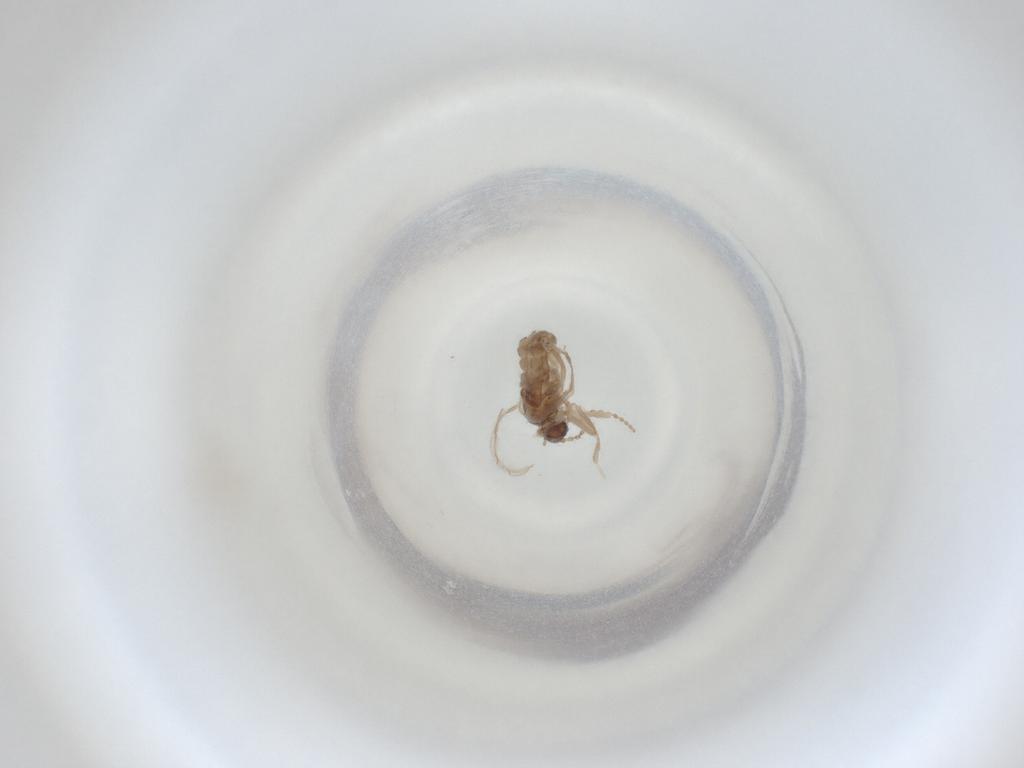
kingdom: Animalia
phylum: Arthropoda
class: Insecta
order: Diptera
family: Cecidomyiidae
